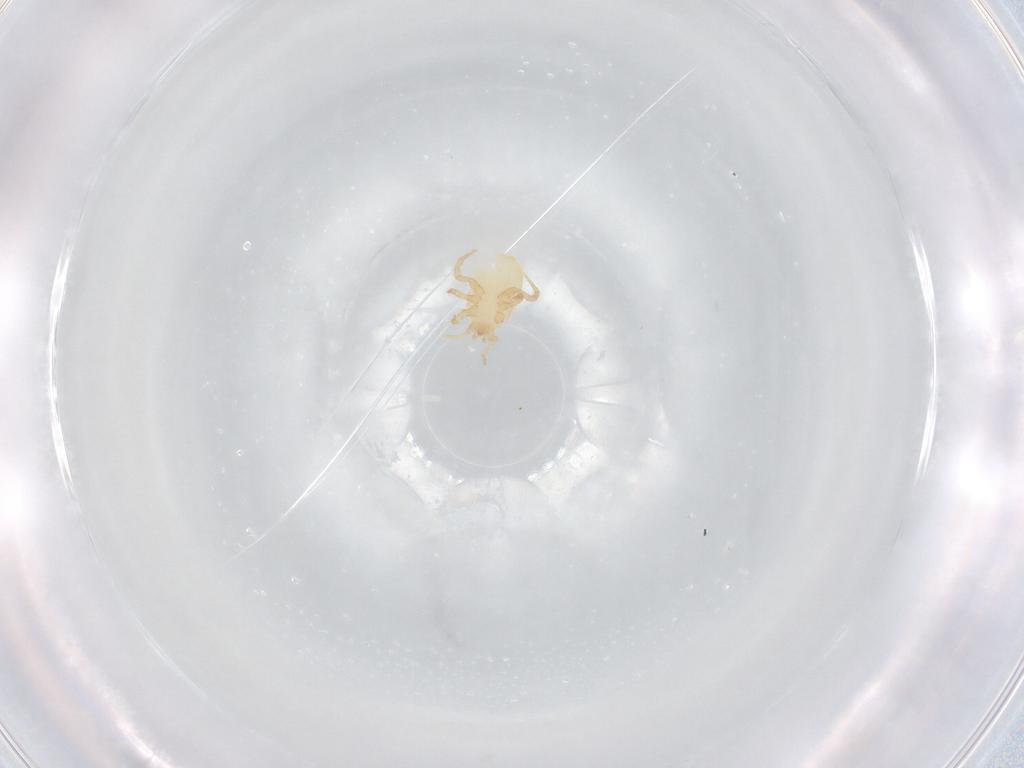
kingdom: Animalia
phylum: Arthropoda
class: Arachnida
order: Mesostigmata
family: Parasitidae
